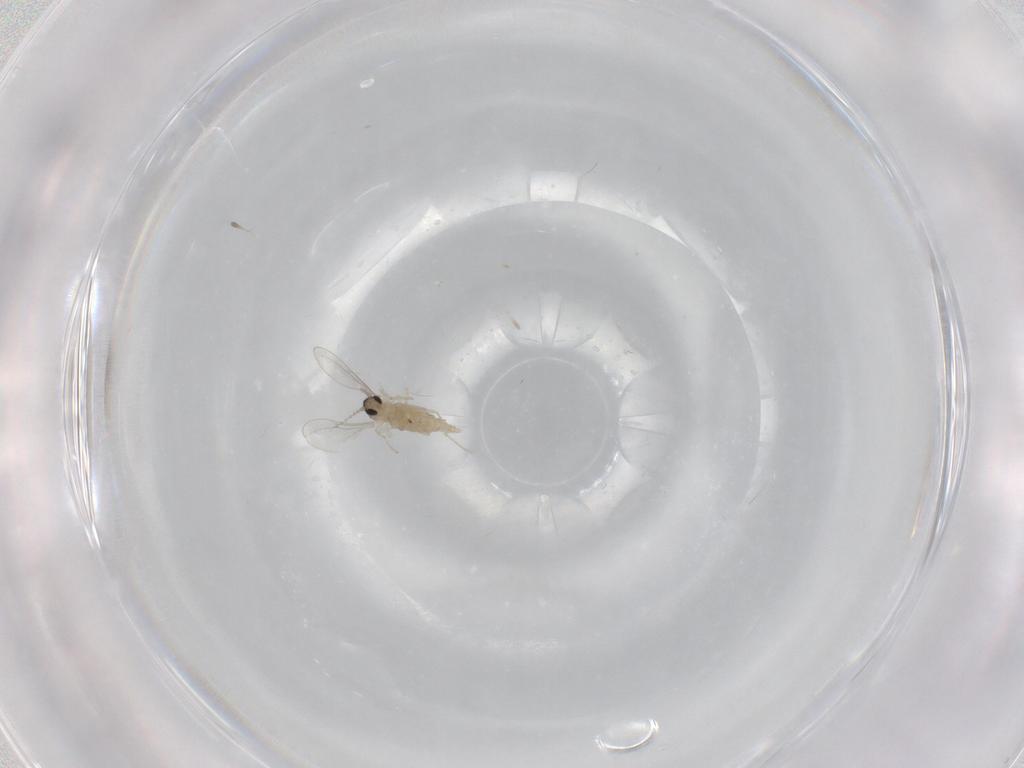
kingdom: Animalia
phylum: Arthropoda
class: Insecta
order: Diptera
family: Cecidomyiidae
